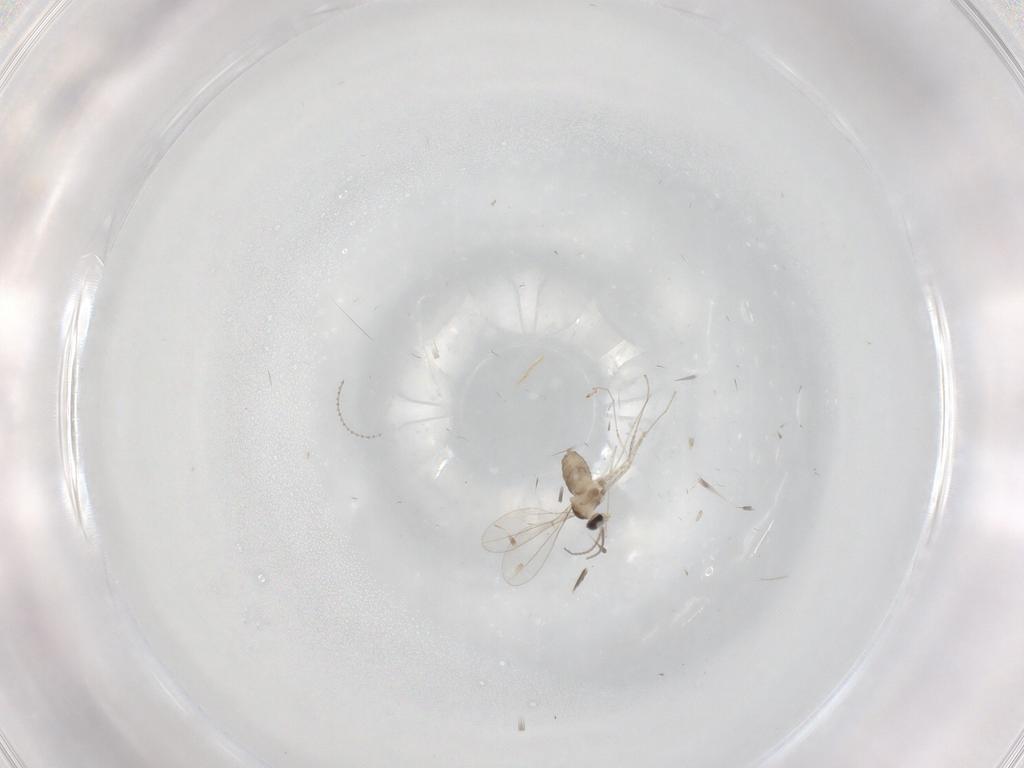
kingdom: Animalia
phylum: Arthropoda
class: Insecta
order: Diptera
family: Cecidomyiidae
